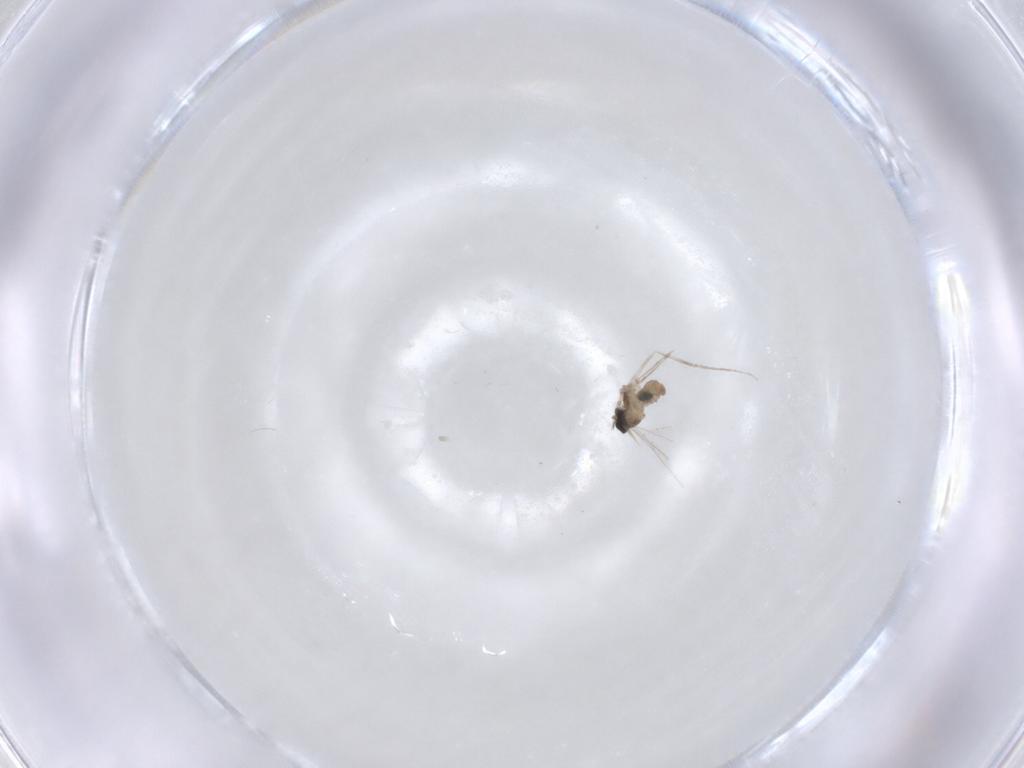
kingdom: Animalia
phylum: Arthropoda
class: Insecta
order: Diptera
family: Cecidomyiidae
